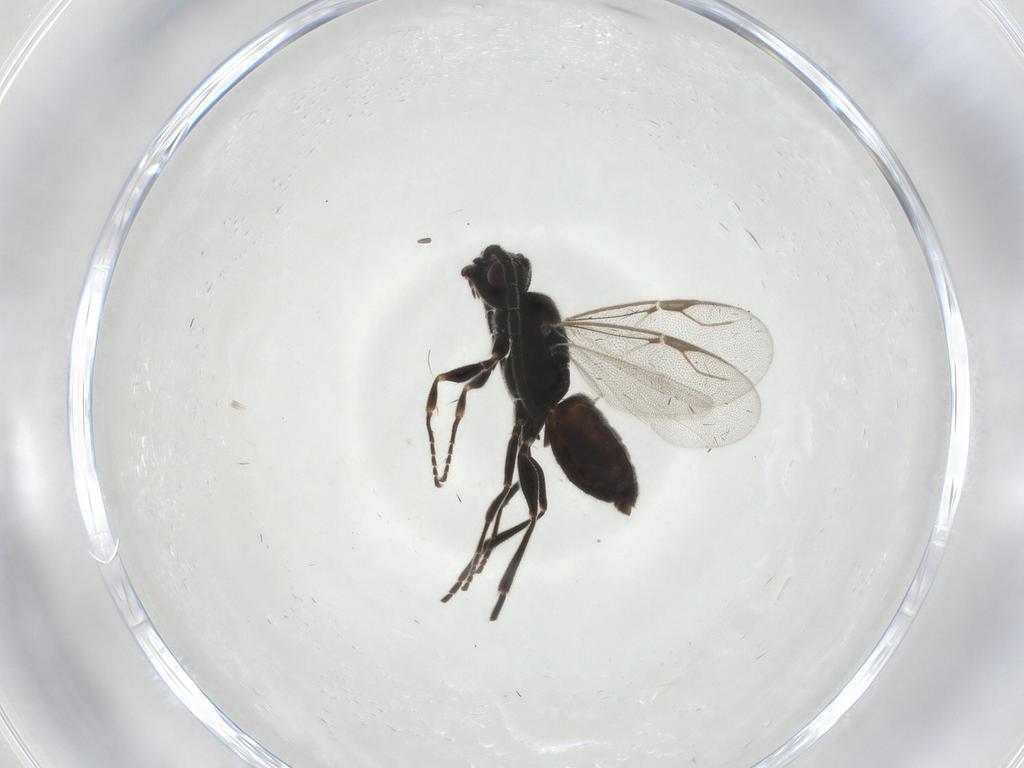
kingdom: Animalia
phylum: Arthropoda
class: Insecta
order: Hymenoptera
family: Dryinidae
